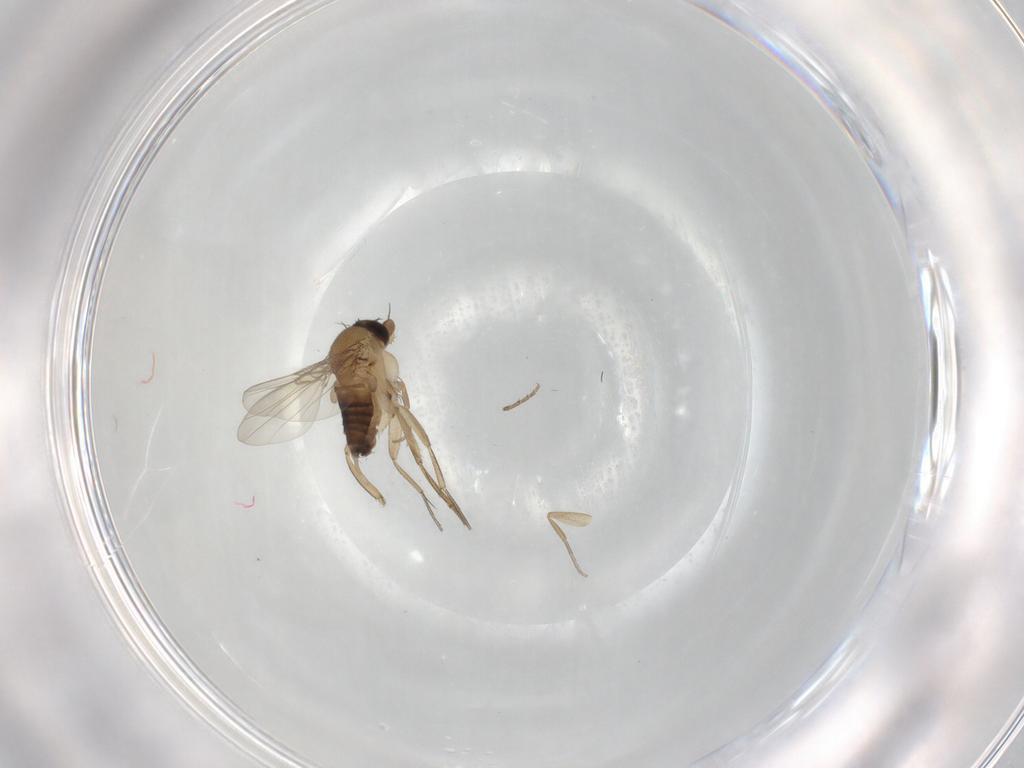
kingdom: Animalia
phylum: Arthropoda
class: Insecta
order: Diptera
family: Phoridae
